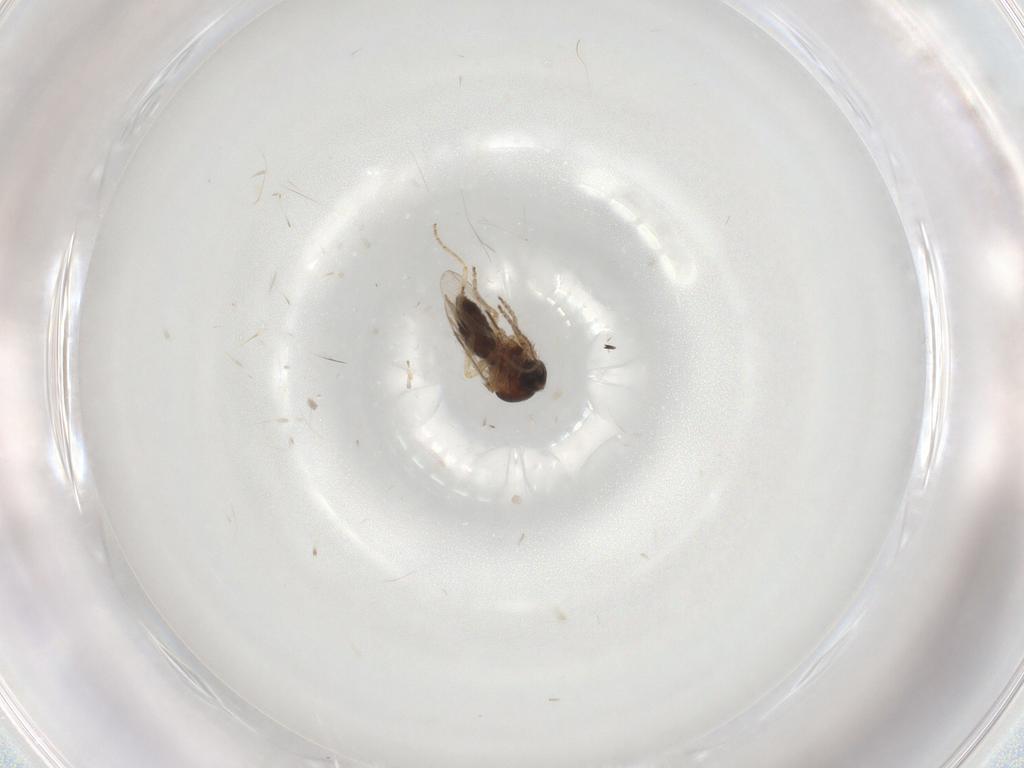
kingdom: Animalia
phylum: Arthropoda
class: Insecta
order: Diptera
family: Ceratopogonidae
